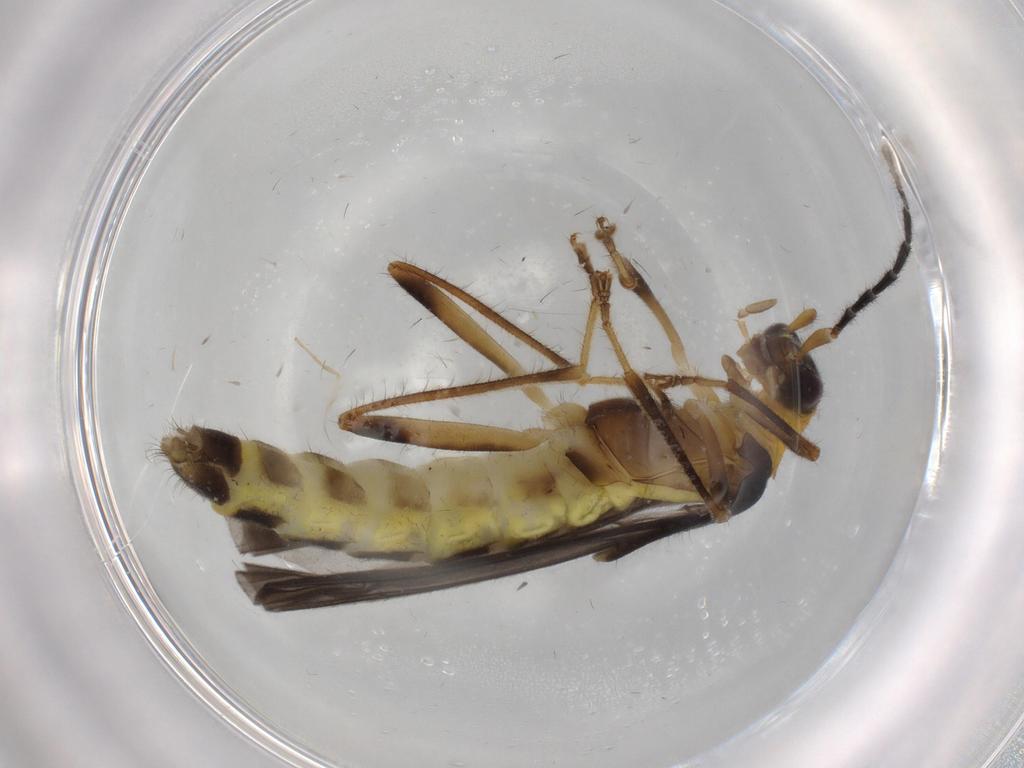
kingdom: Animalia
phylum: Arthropoda
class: Insecta
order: Coleoptera
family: Cantharidae
